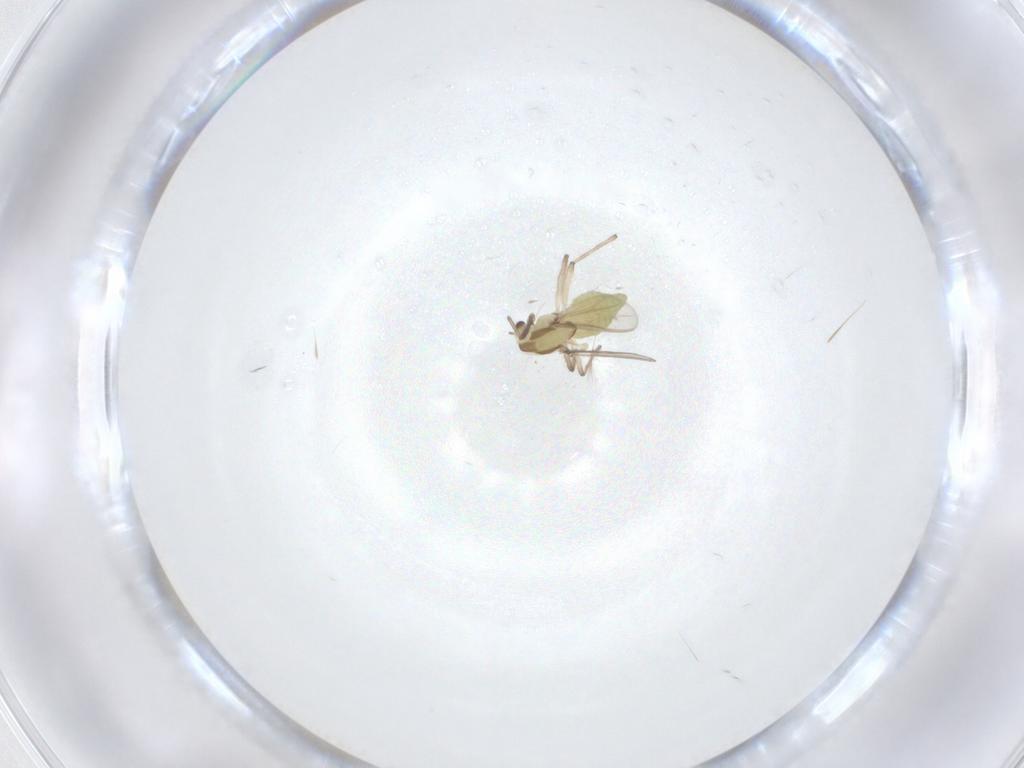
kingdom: Animalia
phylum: Arthropoda
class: Insecta
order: Diptera
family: Chironomidae
